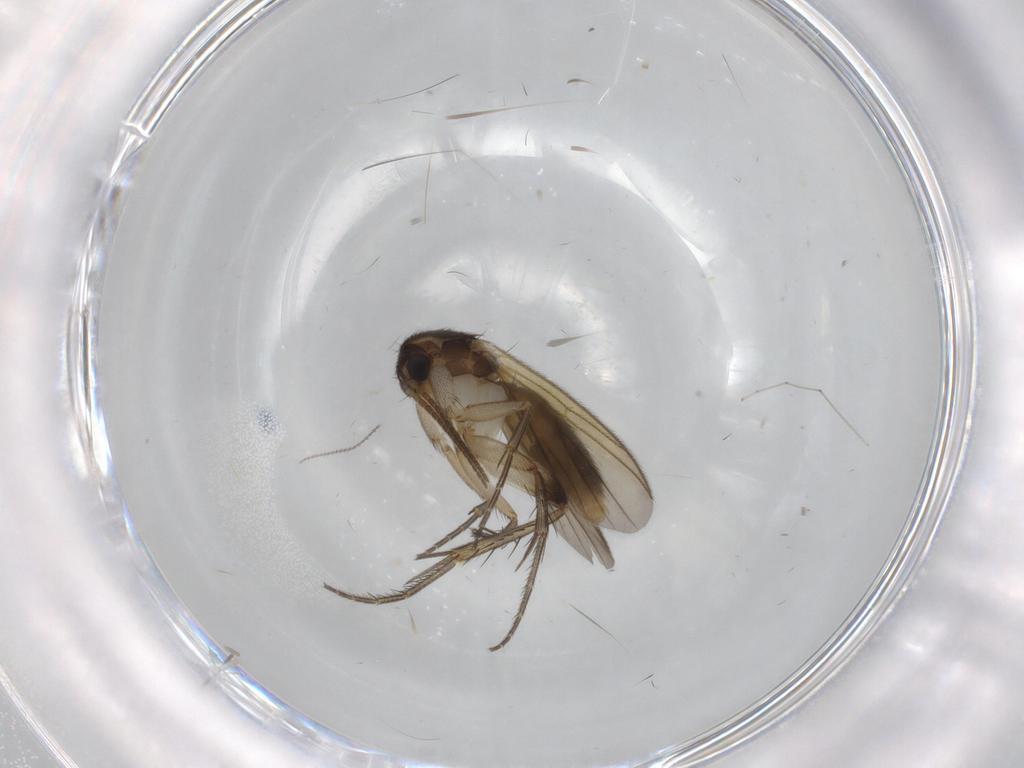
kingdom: Animalia
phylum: Arthropoda
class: Insecta
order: Diptera
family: Mycetophilidae
